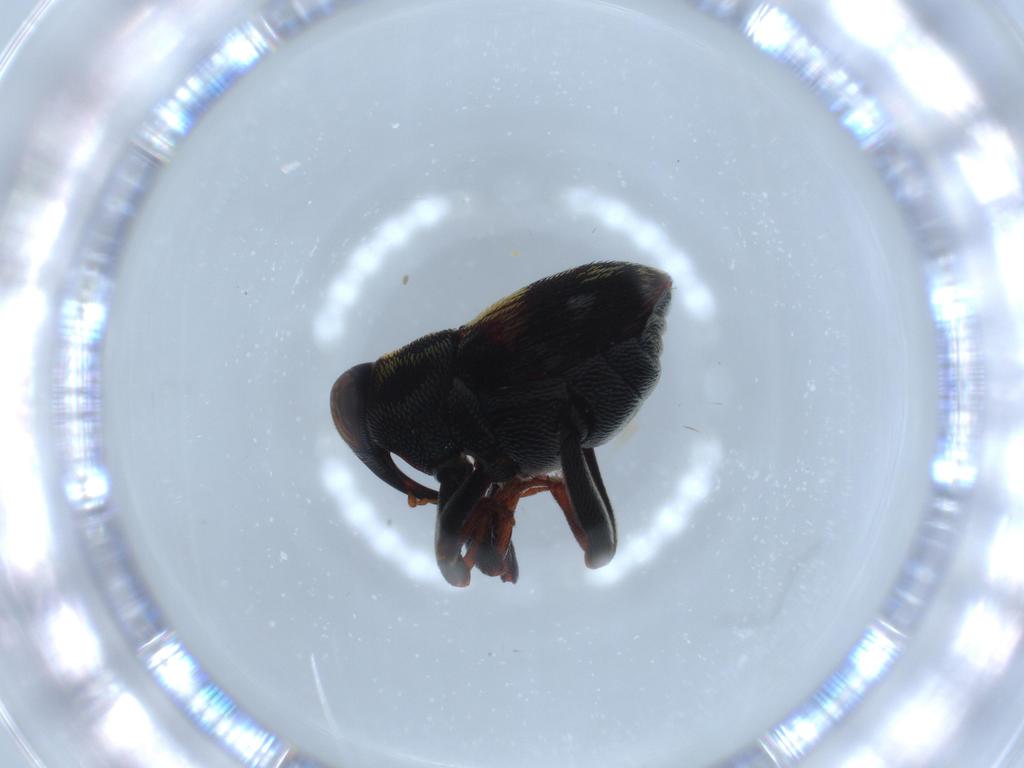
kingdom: Animalia
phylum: Arthropoda
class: Insecta
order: Coleoptera
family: Curculionidae
